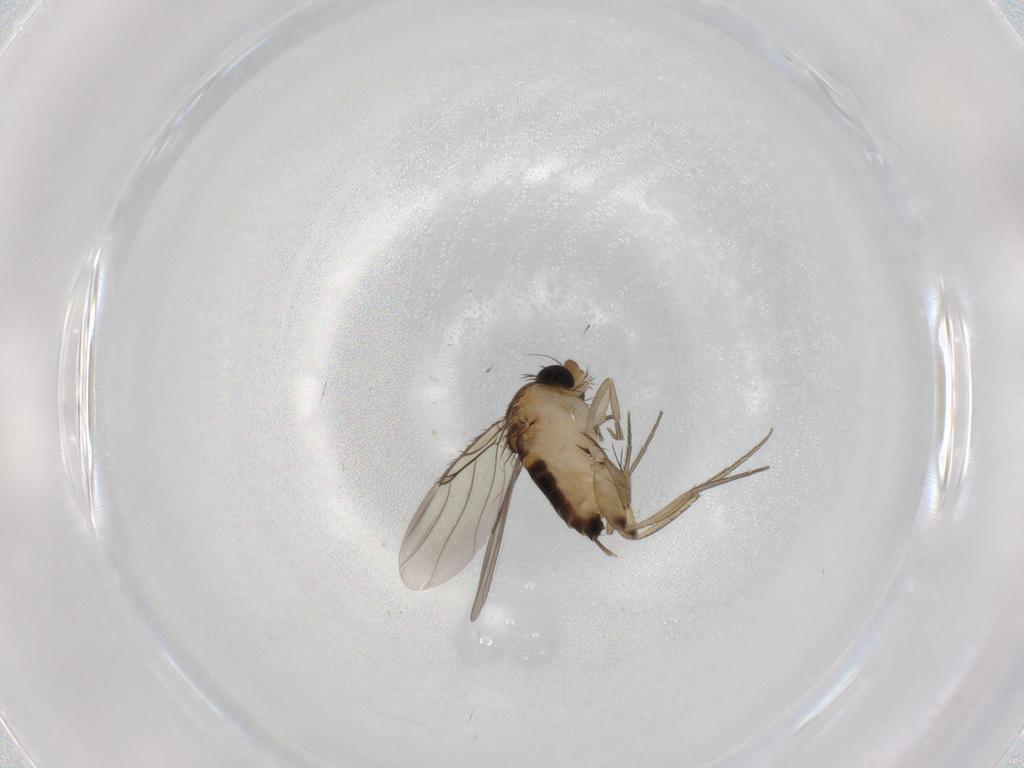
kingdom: Animalia
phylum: Arthropoda
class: Insecta
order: Diptera
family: Phoridae
